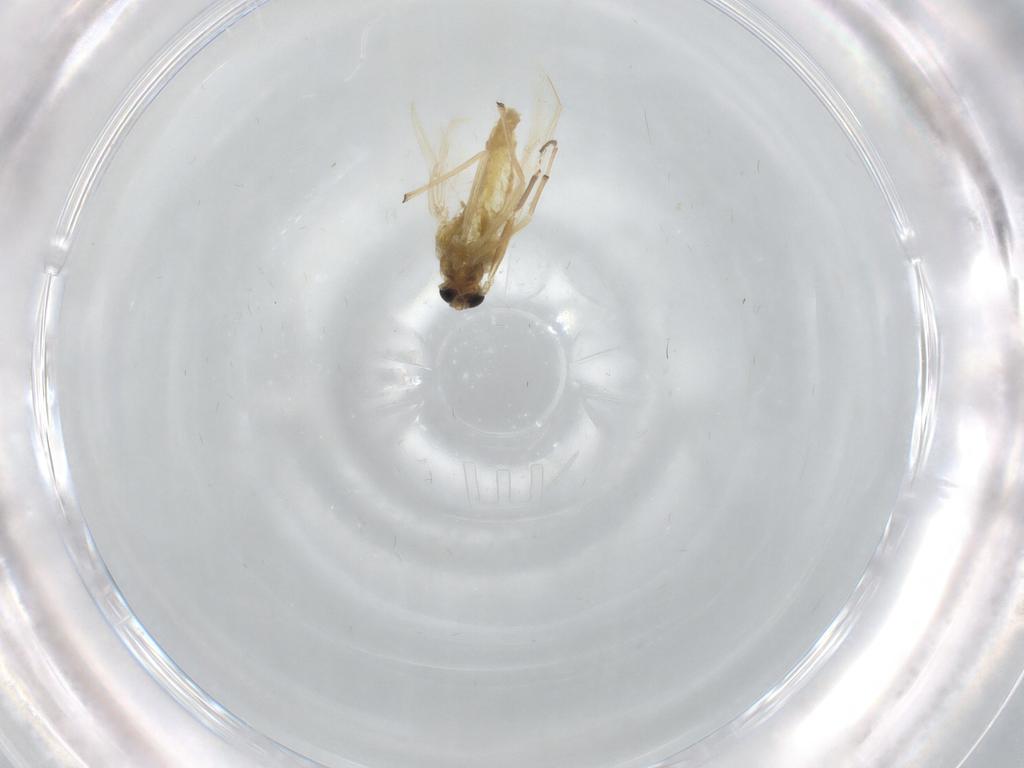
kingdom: Animalia
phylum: Arthropoda
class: Insecta
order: Diptera
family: Chironomidae
